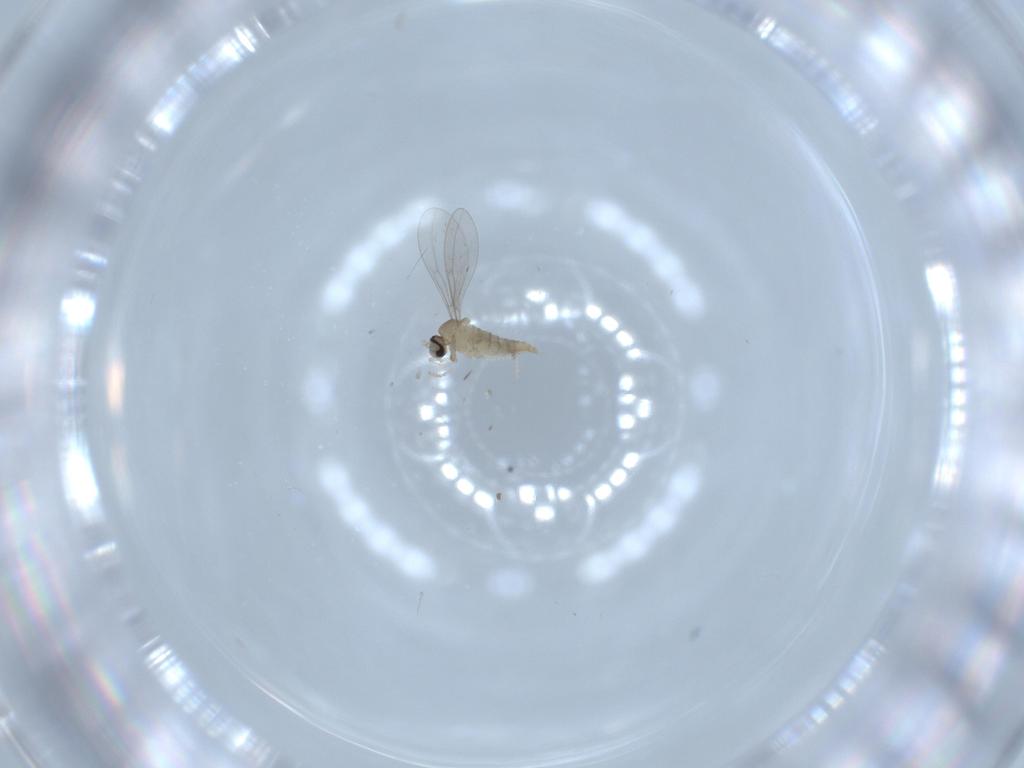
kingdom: Animalia
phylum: Arthropoda
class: Insecta
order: Diptera
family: Cecidomyiidae
